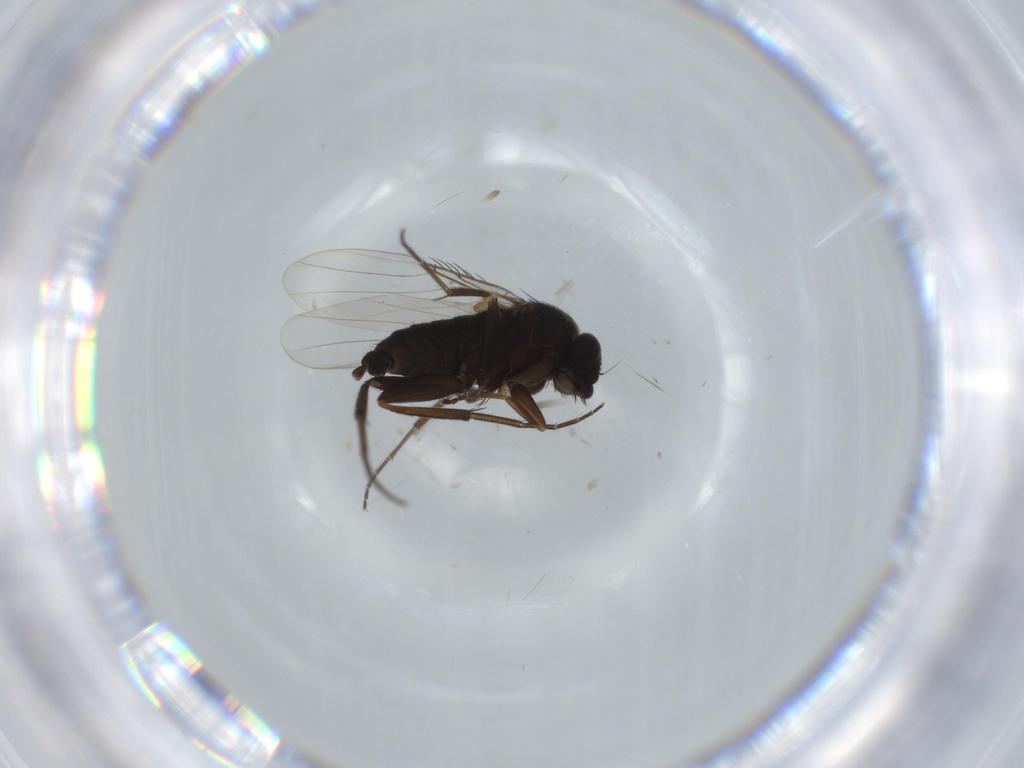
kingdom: Animalia
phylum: Arthropoda
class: Insecta
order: Diptera
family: Phoridae
